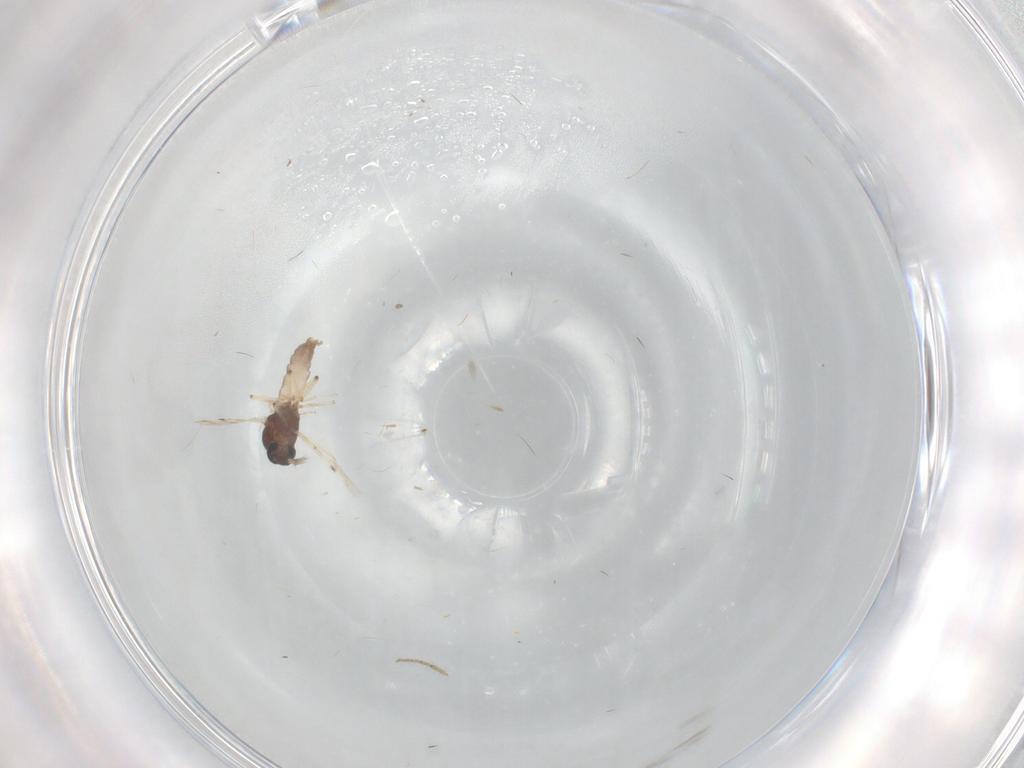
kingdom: Animalia
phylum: Arthropoda
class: Insecta
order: Diptera
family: Cecidomyiidae
